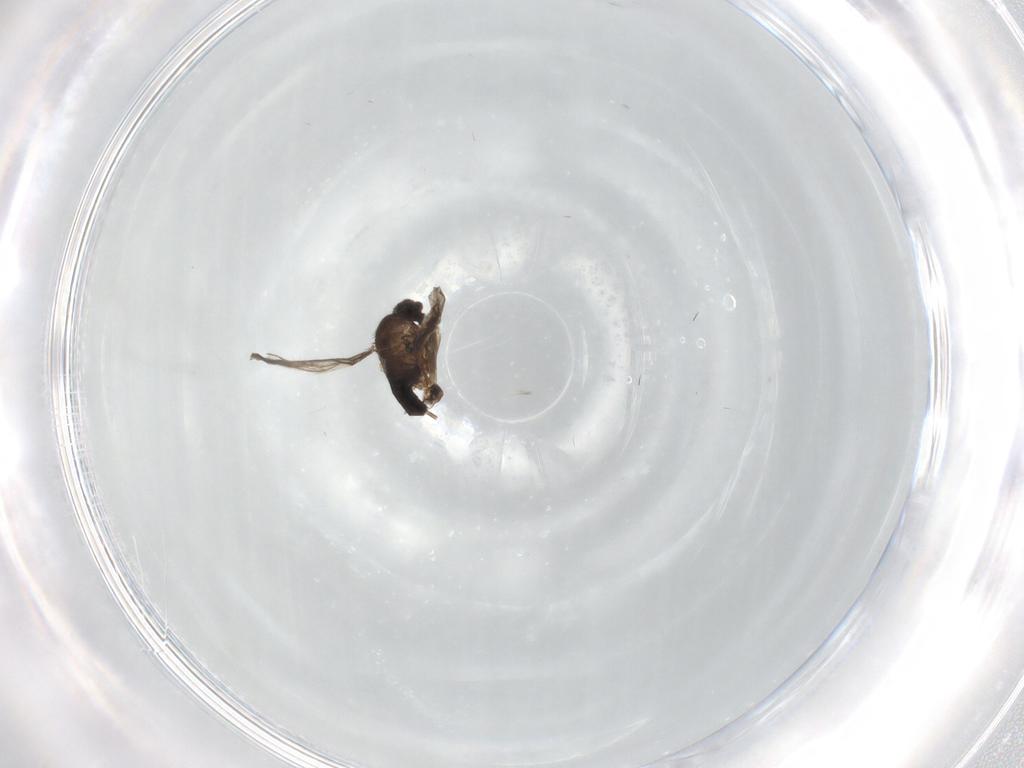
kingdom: Animalia
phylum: Arthropoda
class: Insecta
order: Diptera
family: Phoridae
